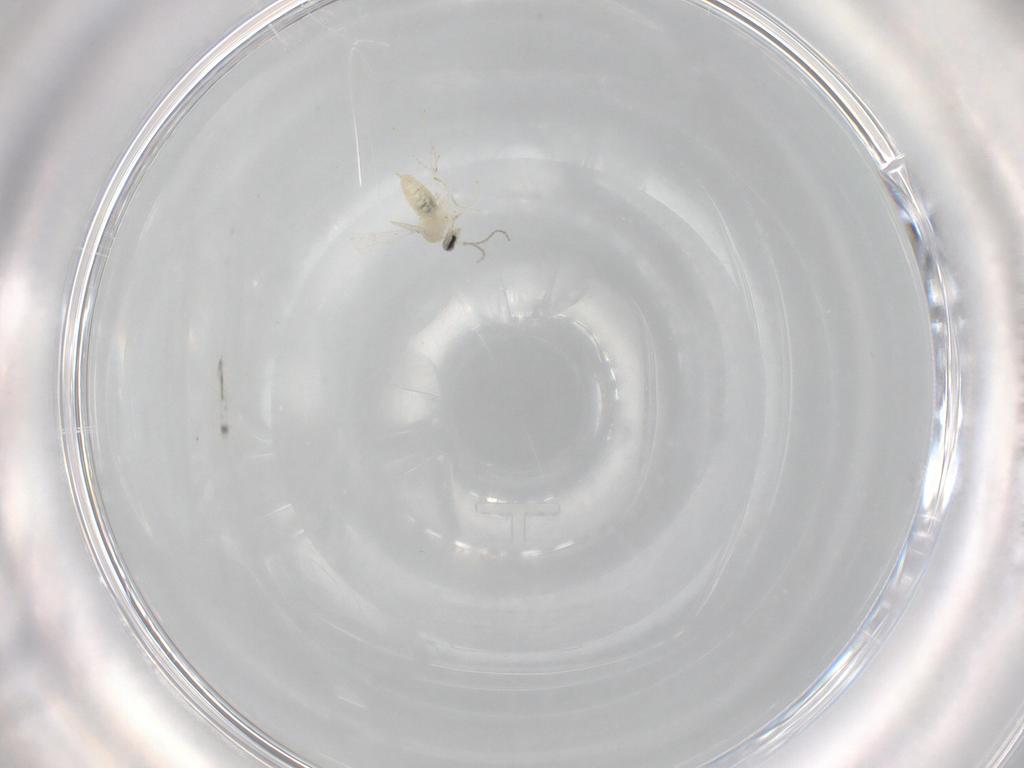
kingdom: Animalia
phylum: Arthropoda
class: Insecta
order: Diptera
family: Cecidomyiidae
